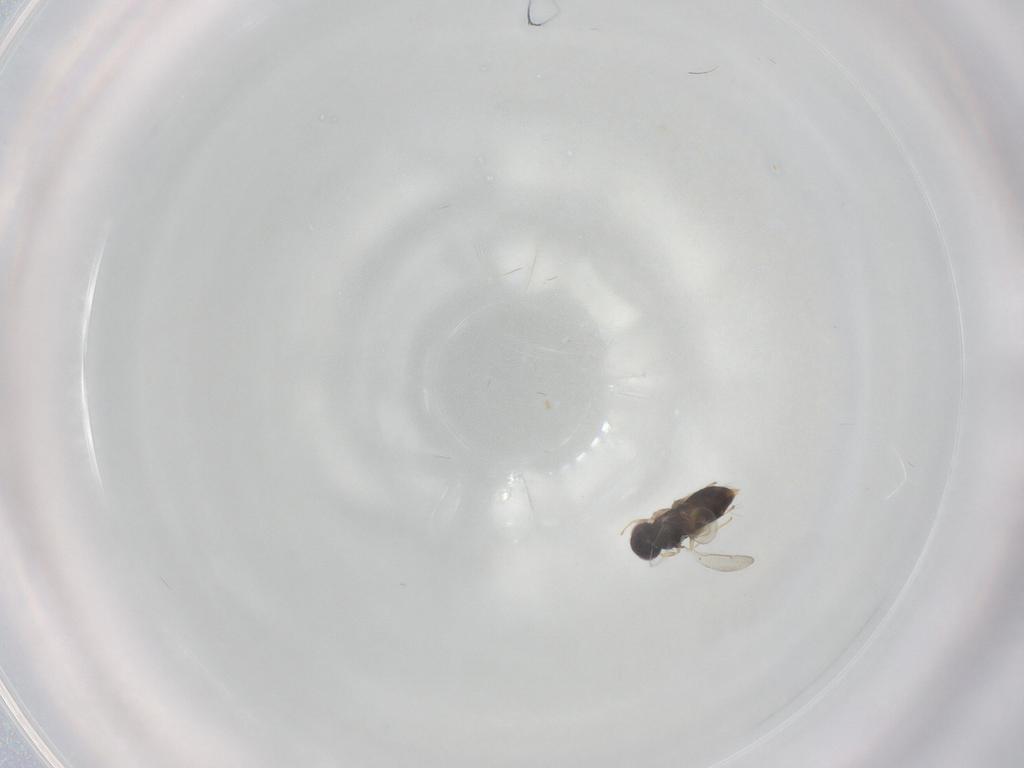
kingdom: Animalia
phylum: Arthropoda
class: Insecta
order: Hymenoptera
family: Aphelinidae
